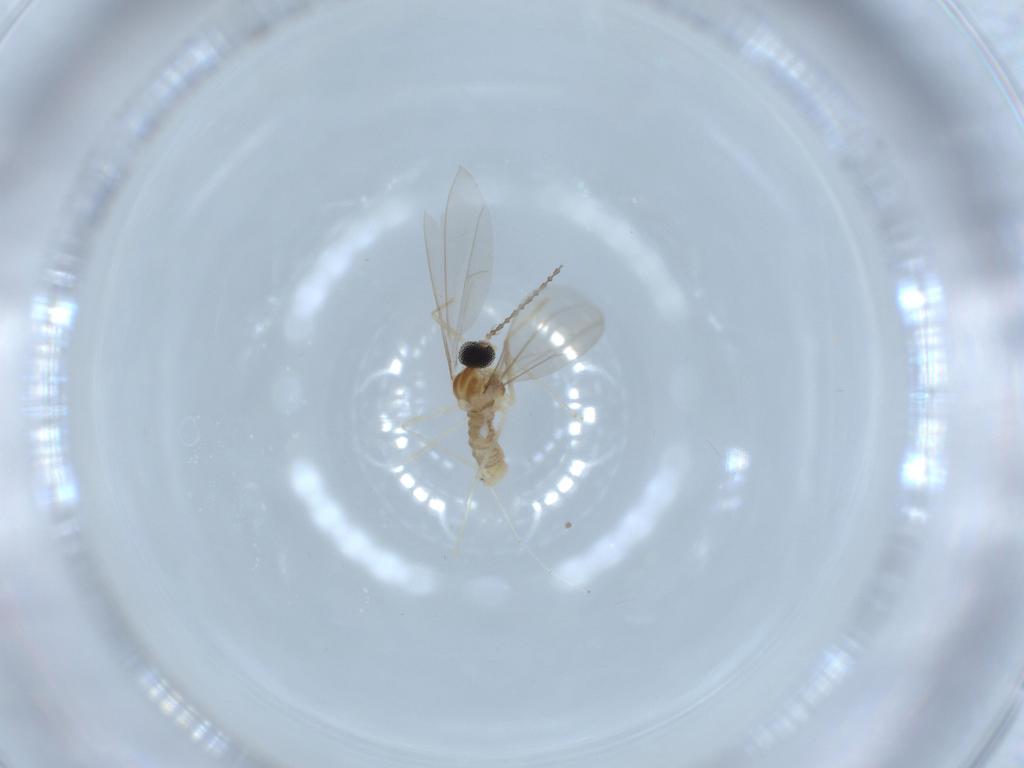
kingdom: Animalia
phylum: Arthropoda
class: Insecta
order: Diptera
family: Cecidomyiidae
